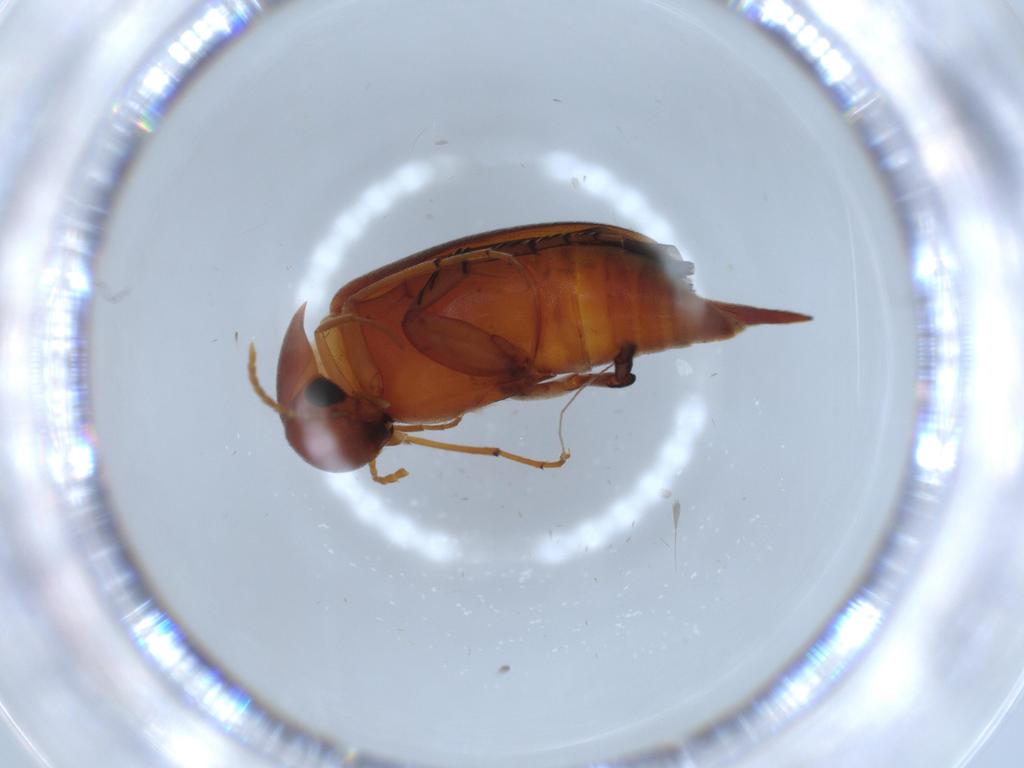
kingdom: Animalia
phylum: Arthropoda
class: Insecta
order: Coleoptera
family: Mordellidae
